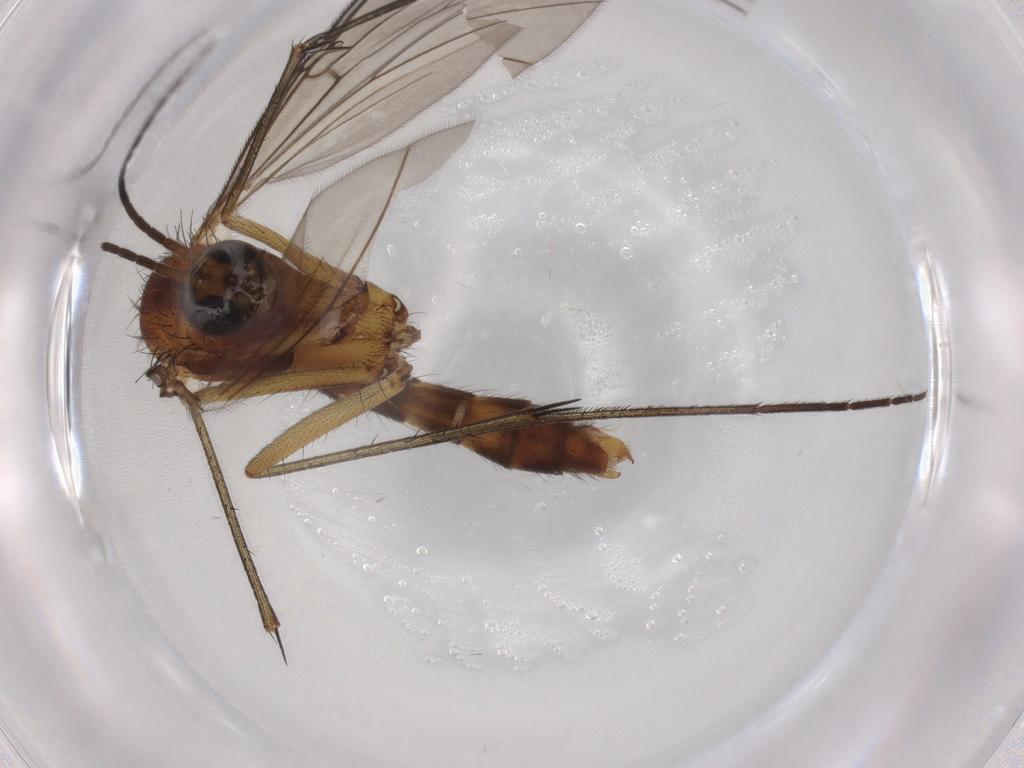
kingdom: Animalia
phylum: Arthropoda
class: Insecta
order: Diptera
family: Mycetophilidae
